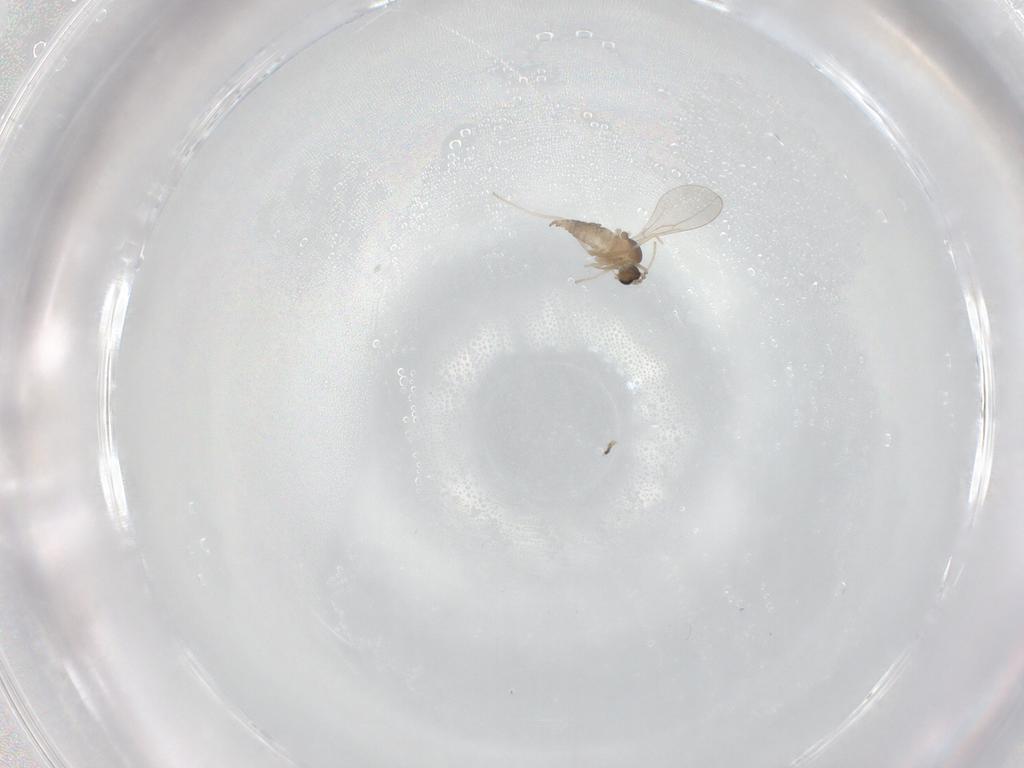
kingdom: Animalia
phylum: Arthropoda
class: Insecta
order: Diptera
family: Cecidomyiidae
